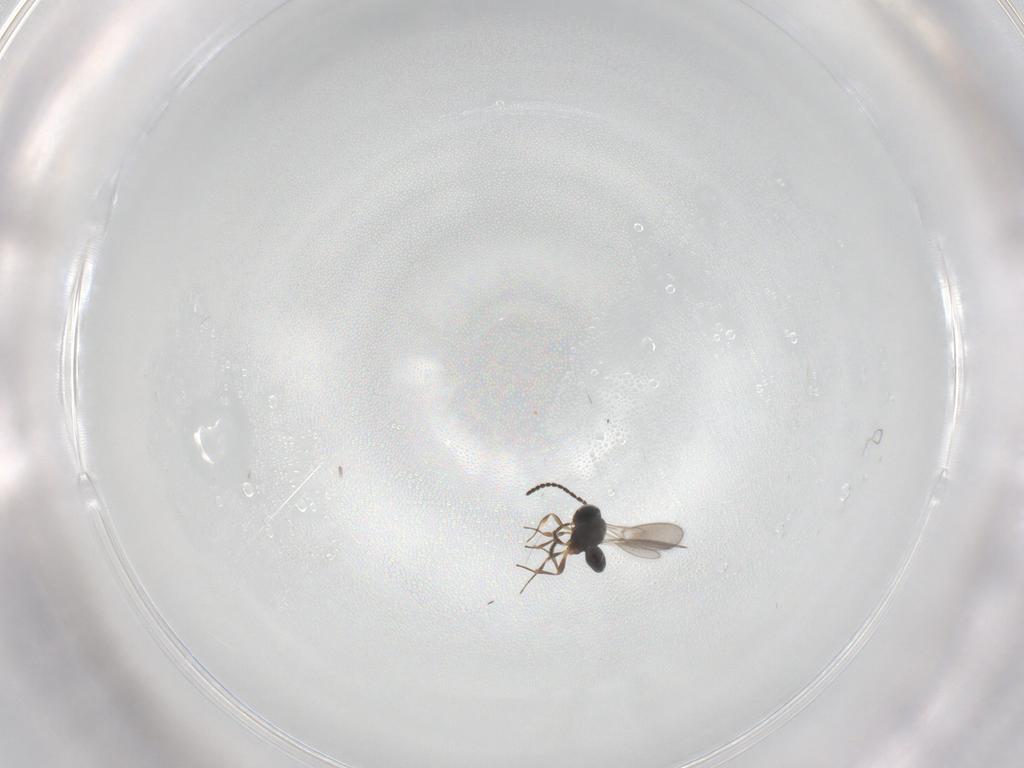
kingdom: Animalia
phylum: Arthropoda
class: Insecta
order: Hymenoptera
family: Scelionidae
